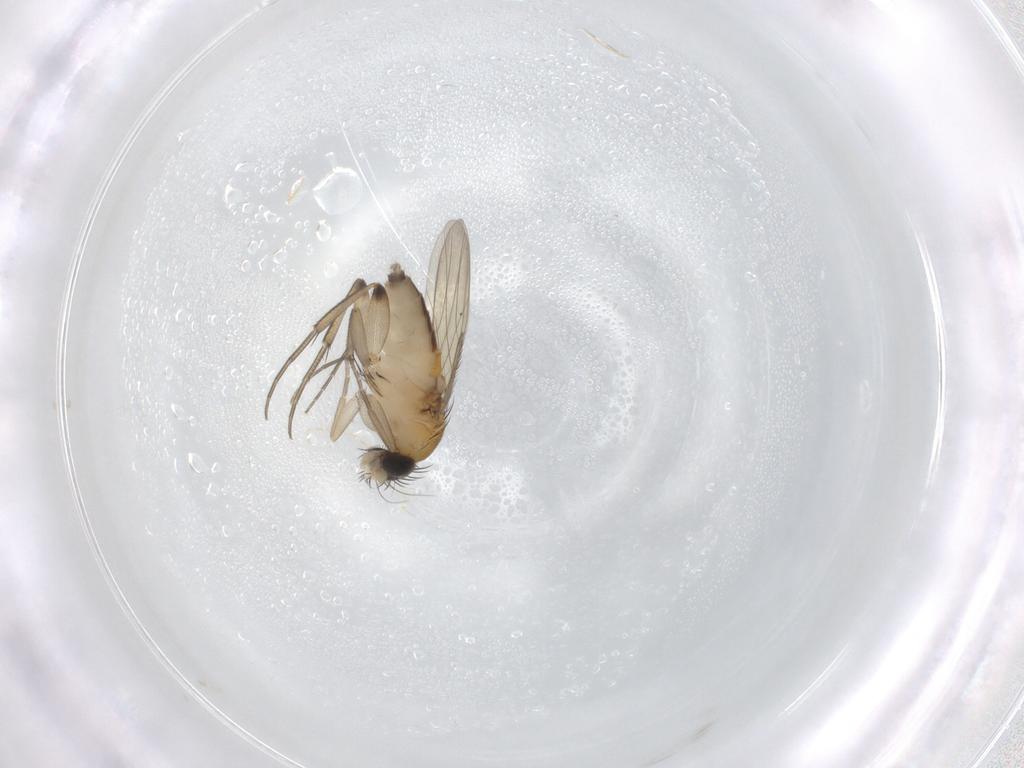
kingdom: Animalia
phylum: Arthropoda
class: Insecta
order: Diptera
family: Phoridae
